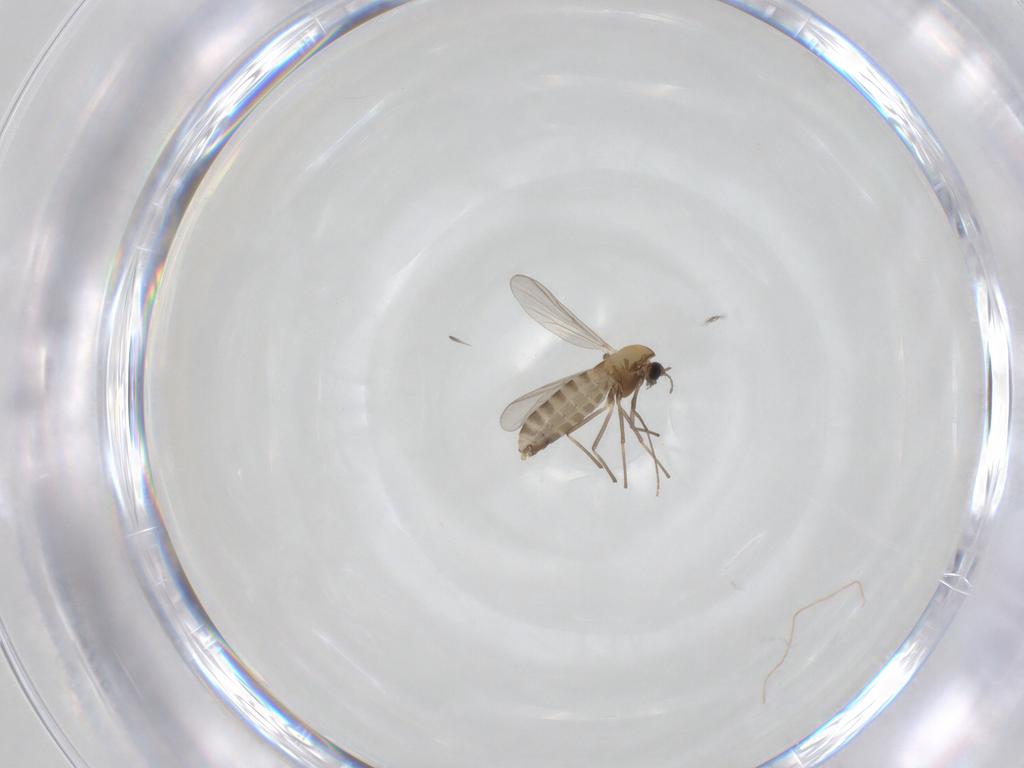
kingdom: Animalia
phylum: Arthropoda
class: Insecta
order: Diptera
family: Chironomidae
